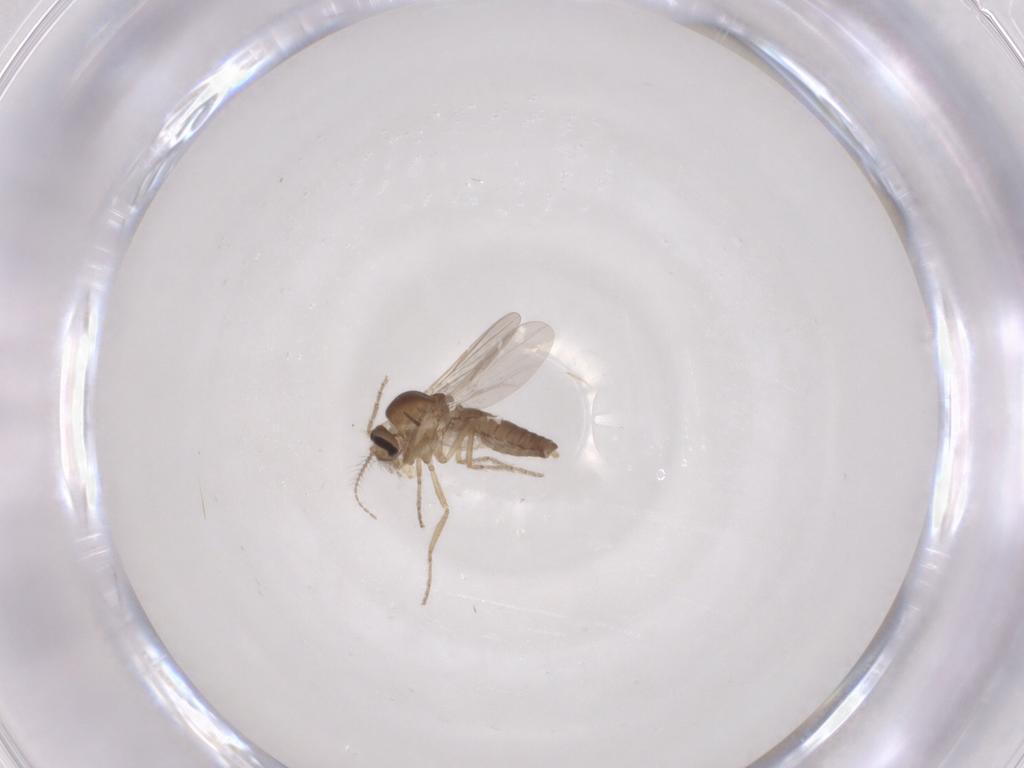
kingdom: Animalia
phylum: Arthropoda
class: Insecta
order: Diptera
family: Ceratopogonidae
